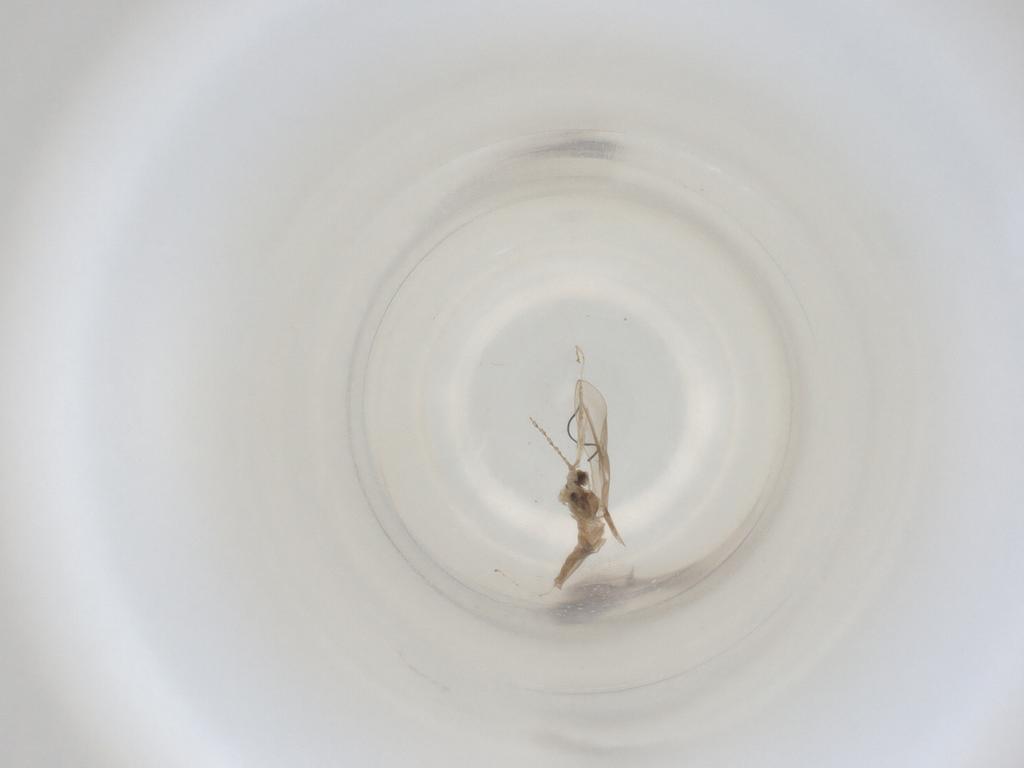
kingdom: Animalia
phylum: Arthropoda
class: Insecta
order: Diptera
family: Cecidomyiidae
